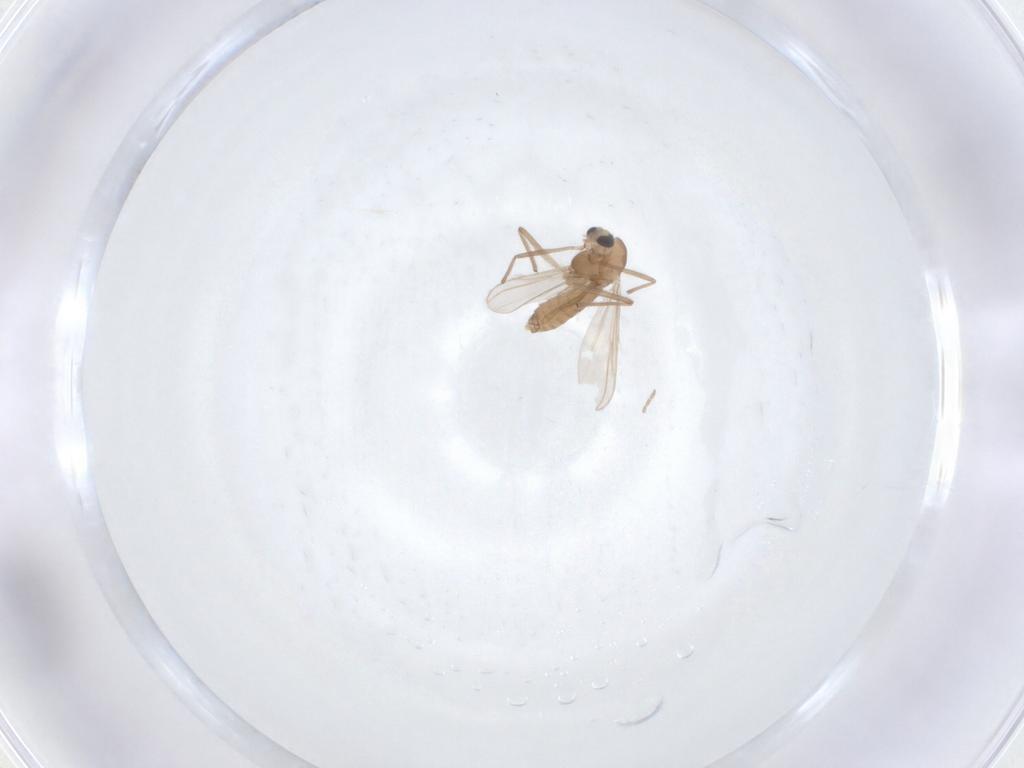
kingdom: Animalia
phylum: Arthropoda
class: Insecta
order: Diptera
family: Chironomidae
